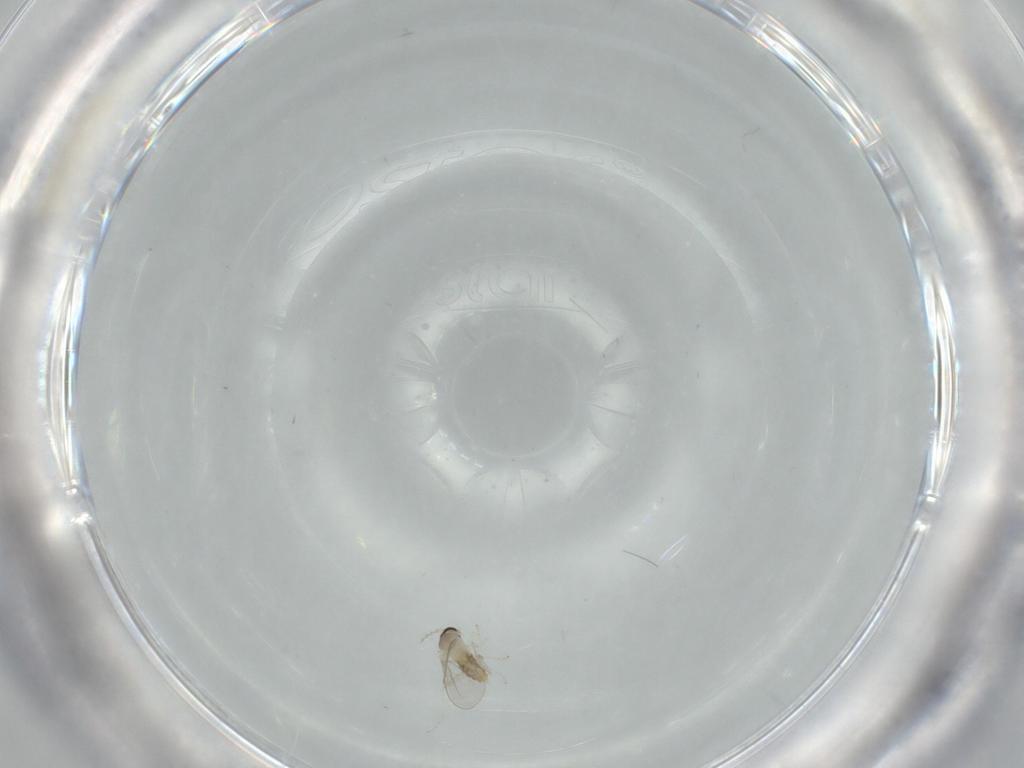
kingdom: Animalia
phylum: Arthropoda
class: Insecta
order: Diptera
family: Cecidomyiidae
